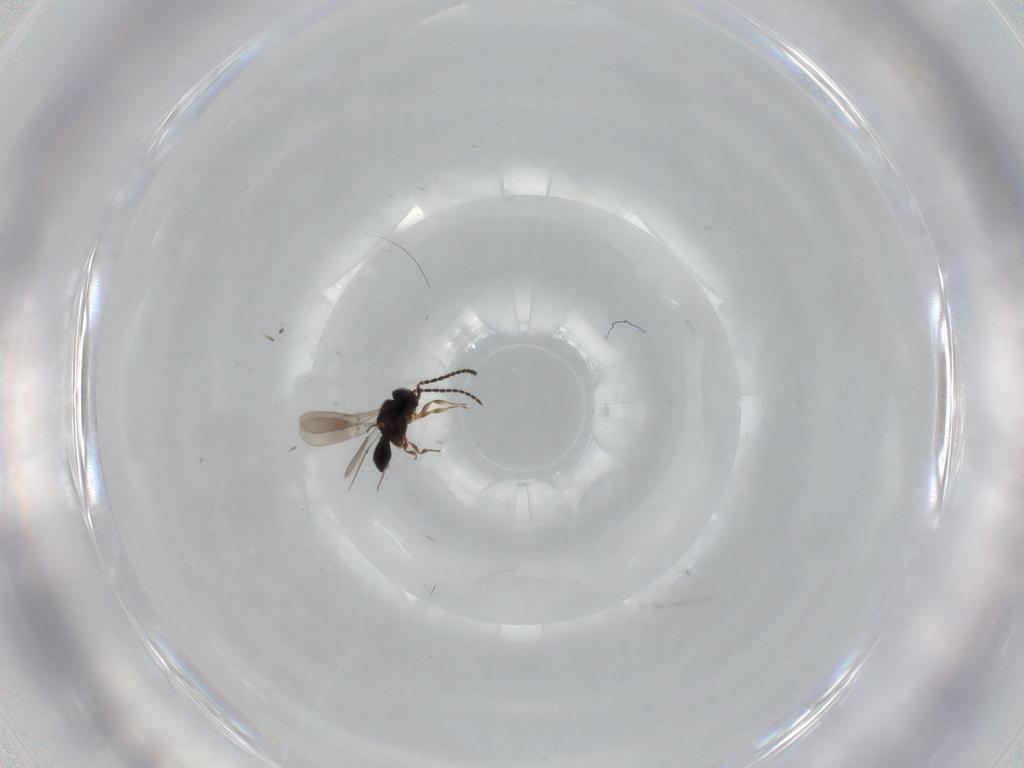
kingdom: Animalia
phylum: Arthropoda
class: Insecta
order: Hymenoptera
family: Scelionidae
